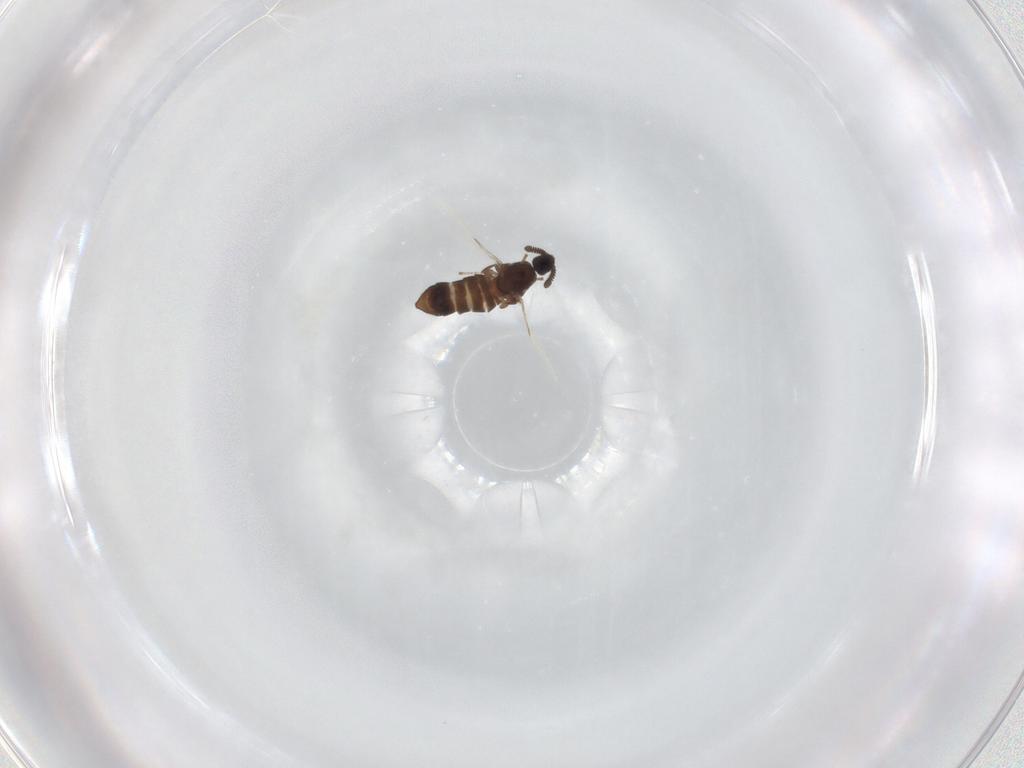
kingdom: Animalia
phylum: Arthropoda
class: Insecta
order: Diptera
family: Scatopsidae
